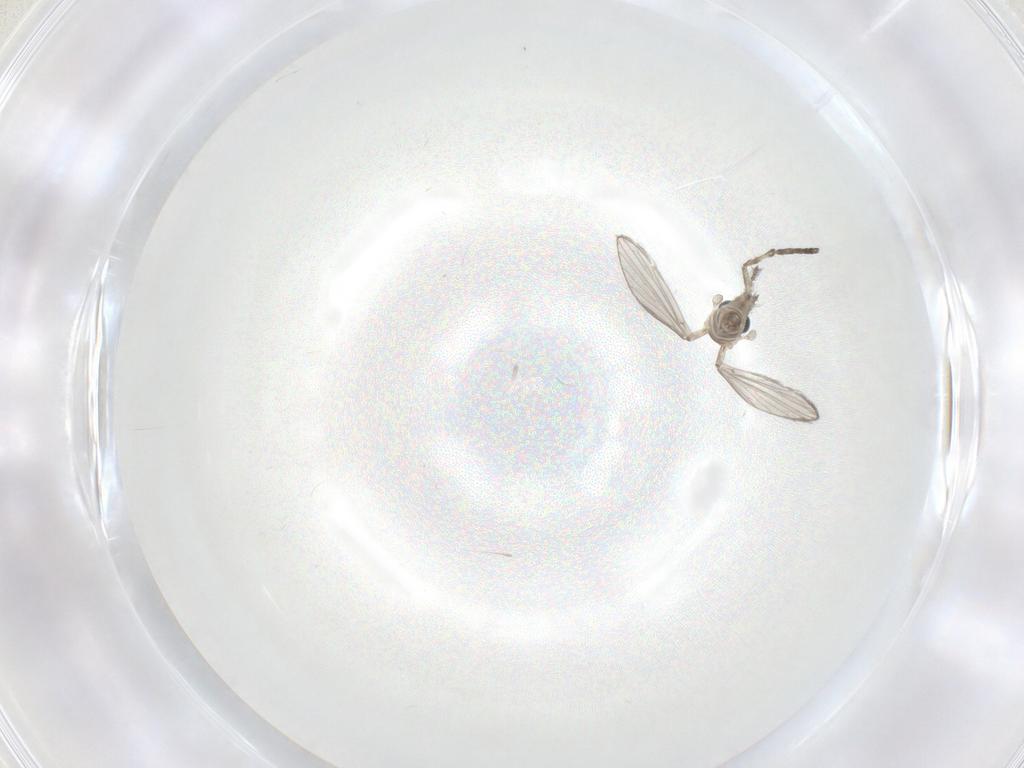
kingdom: Animalia
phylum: Arthropoda
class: Insecta
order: Diptera
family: Psychodidae
